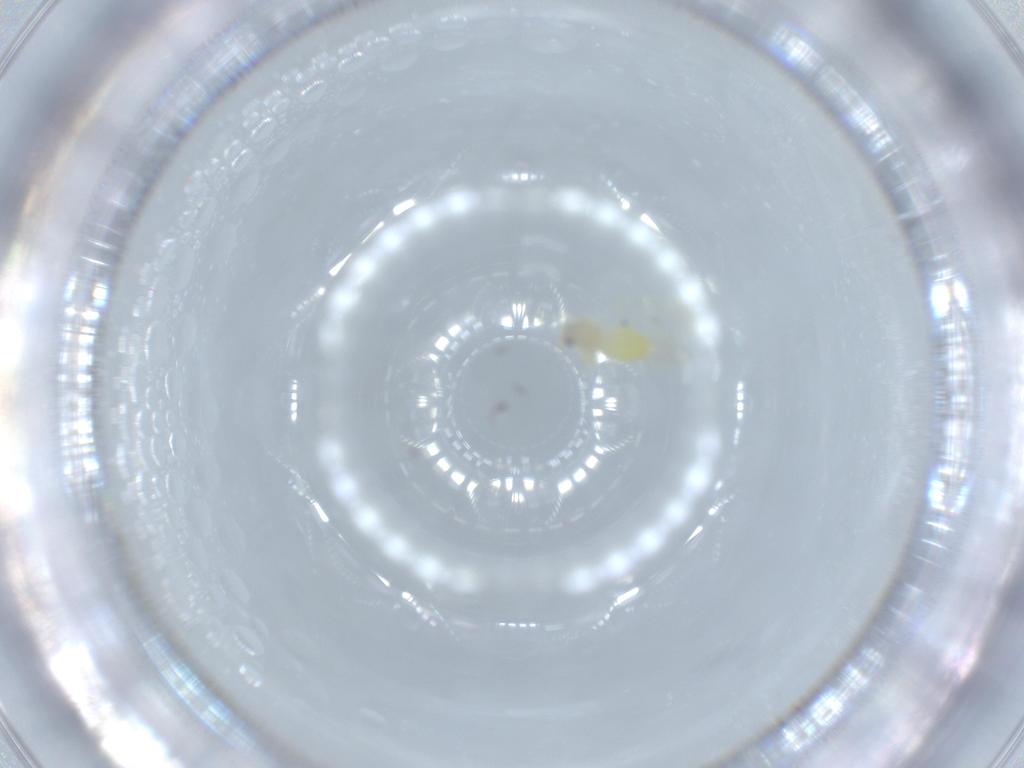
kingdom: Animalia
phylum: Arthropoda
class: Insecta
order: Hemiptera
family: Aleyrodidae
